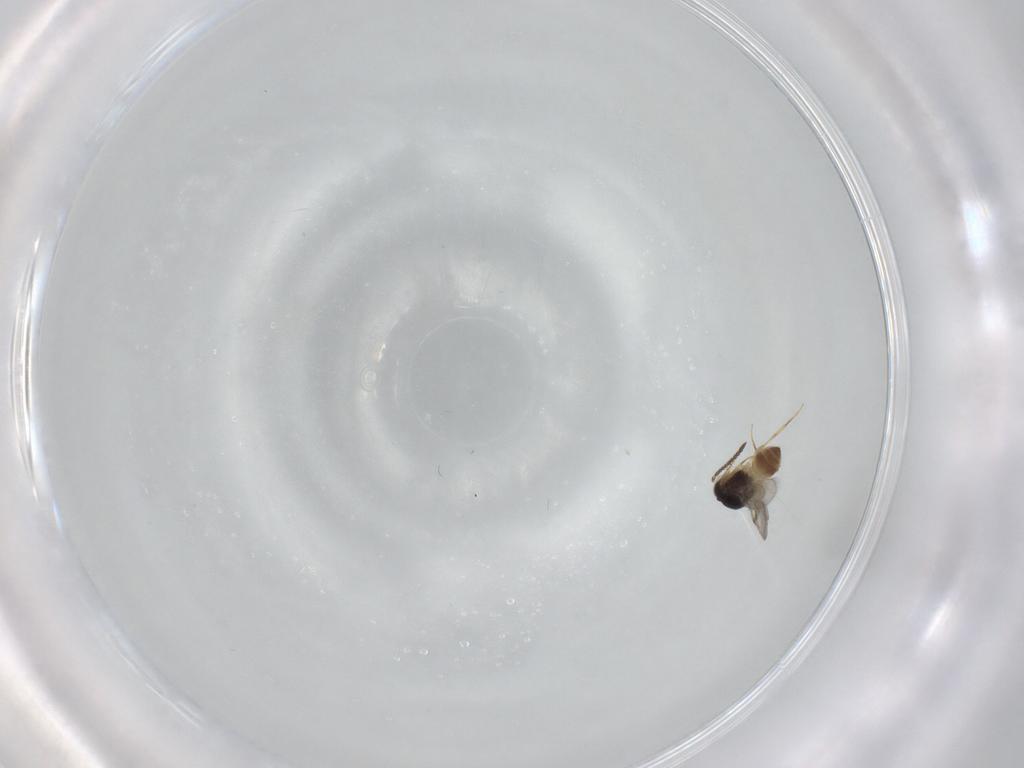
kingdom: Animalia
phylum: Arthropoda
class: Insecta
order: Hymenoptera
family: Scelionidae
